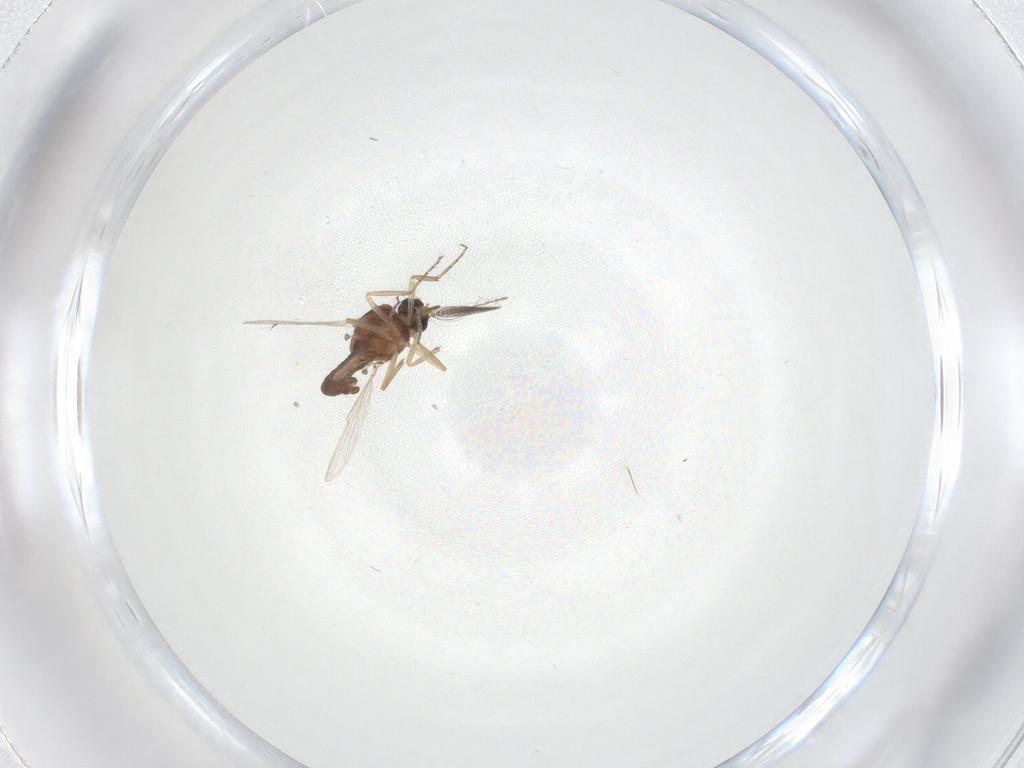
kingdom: Animalia
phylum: Arthropoda
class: Insecta
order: Diptera
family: Ceratopogonidae
